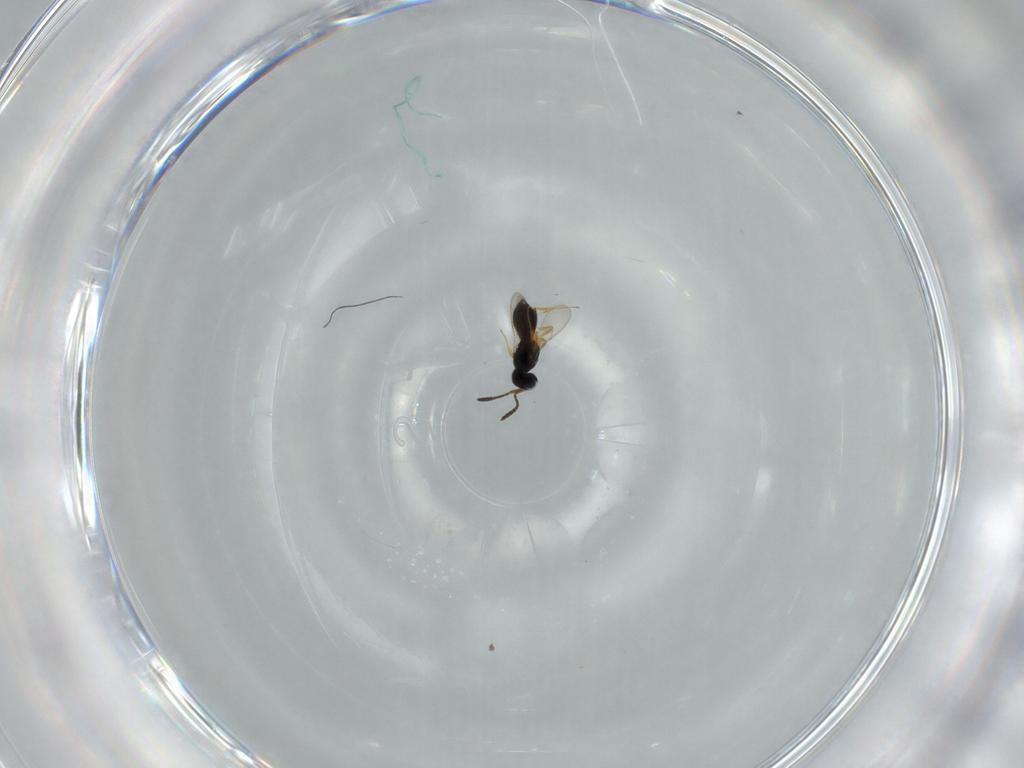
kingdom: Animalia
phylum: Arthropoda
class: Insecta
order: Hymenoptera
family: Scelionidae
